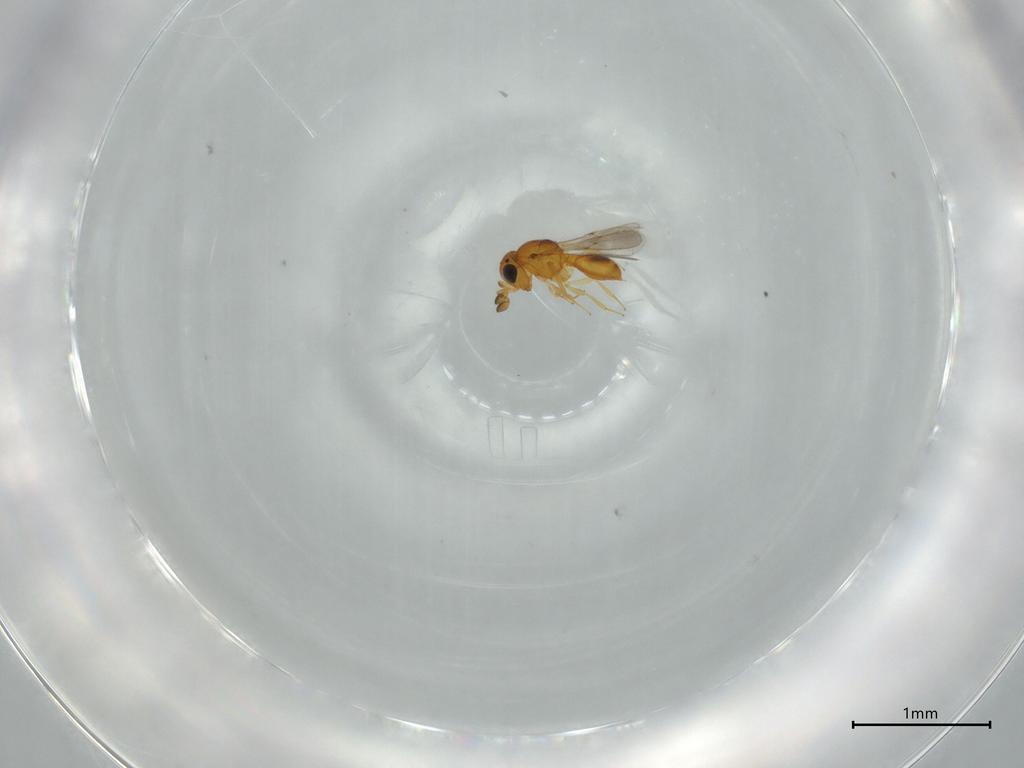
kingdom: Animalia
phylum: Arthropoda
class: Insecta
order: Hymenoptera
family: Scelionidae
